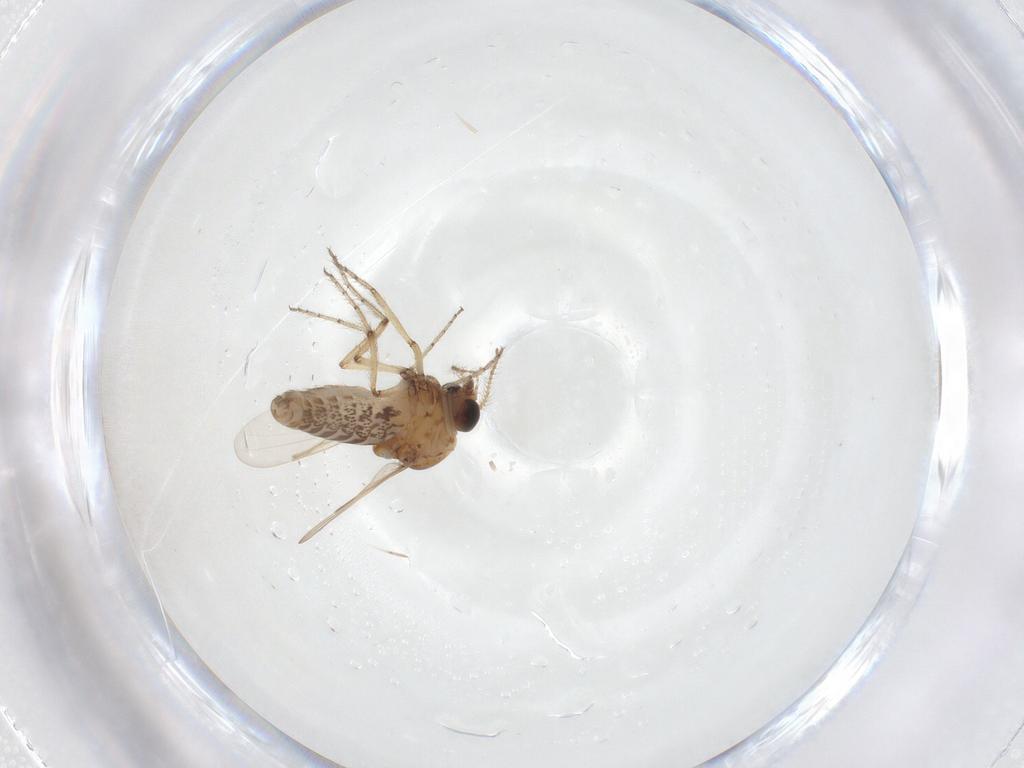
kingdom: Animalia
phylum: Arthropoda
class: Insecta
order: Diptera
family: Ceratopogonidae
